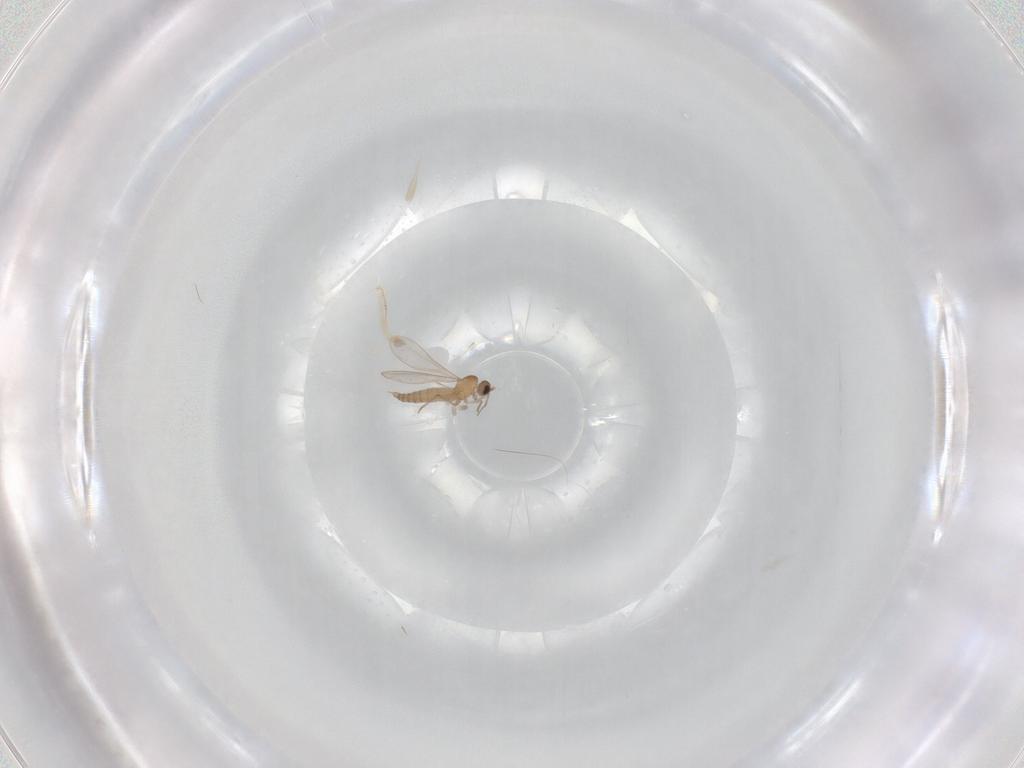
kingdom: Animalia
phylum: Arthropoda
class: Insecta
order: Diptera
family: Cecidomyiidae
